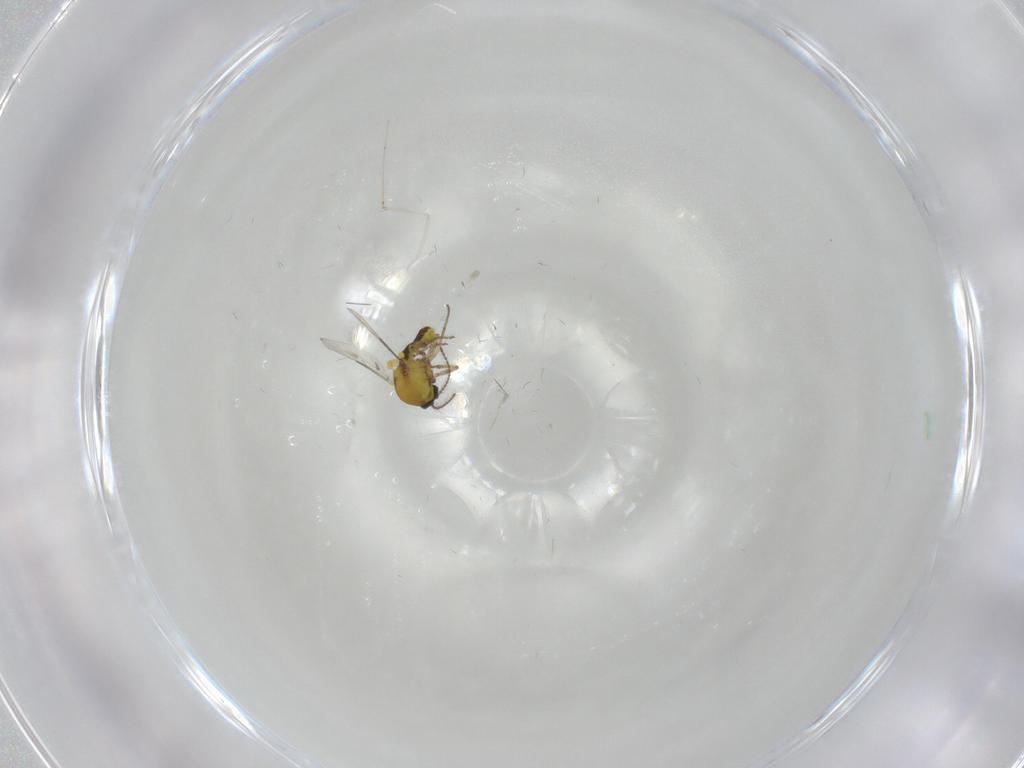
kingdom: Animalia
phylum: Arthropoda
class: Insecta
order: Diptera
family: Cecidomyiidae
